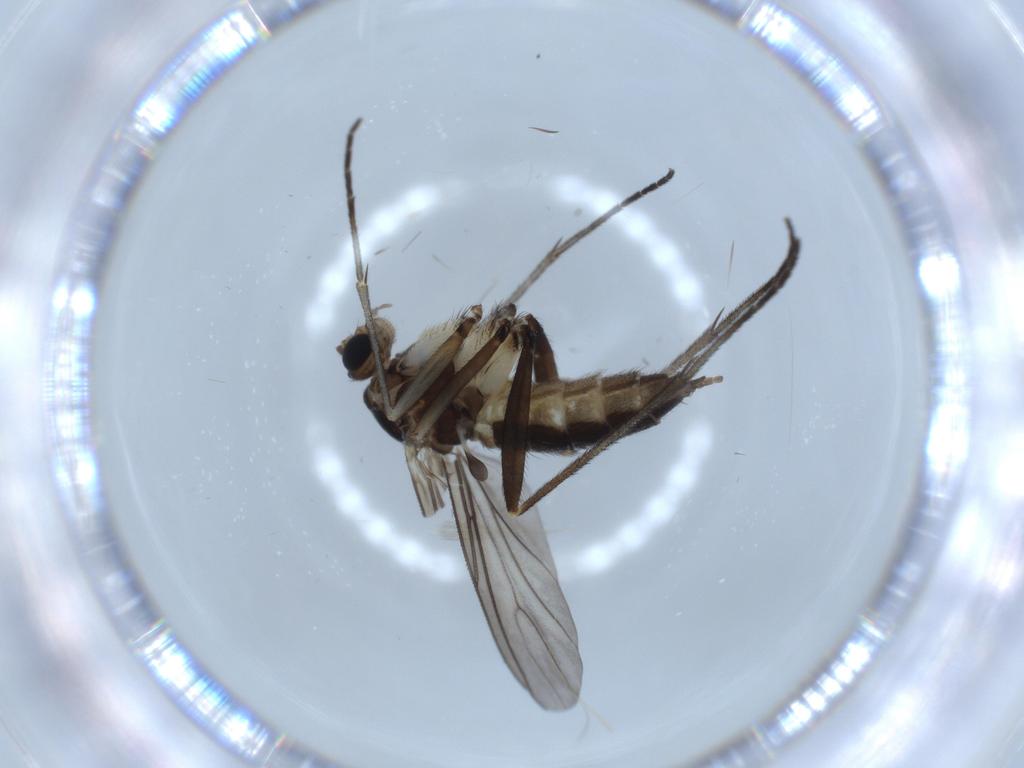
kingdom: Animalia
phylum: Arthropoda
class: Insecta
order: Diptera
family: Sciaridae
